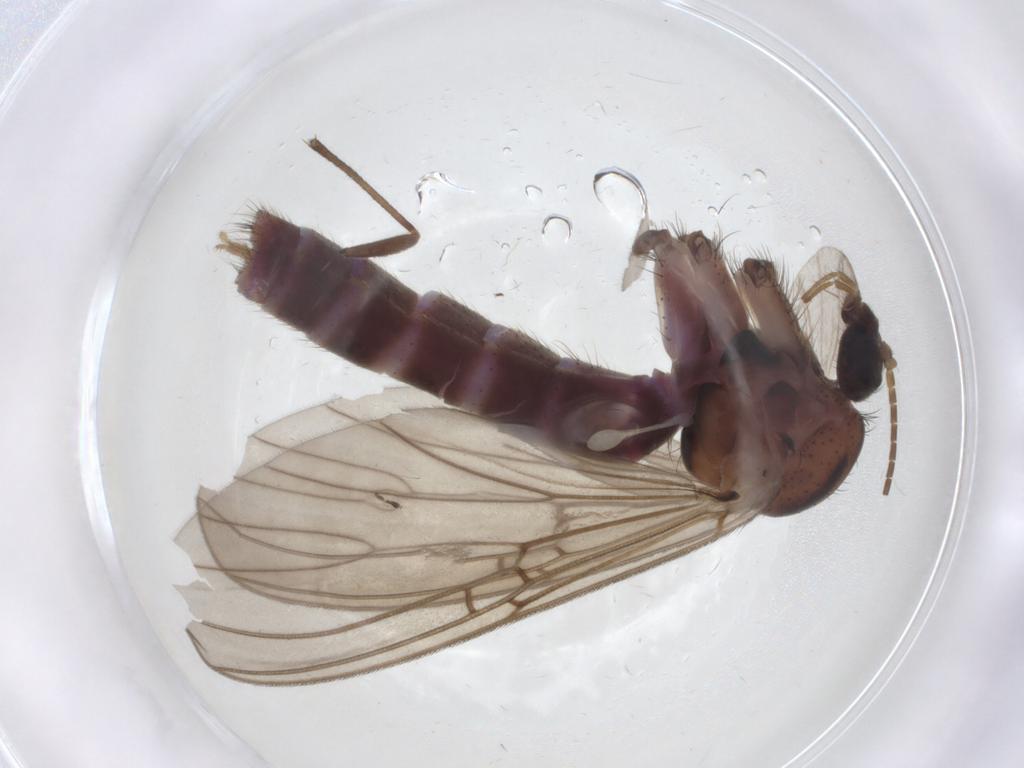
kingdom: Animalia
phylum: Arthropoda
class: Insecta
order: Diptera
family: Mycetophilidae
